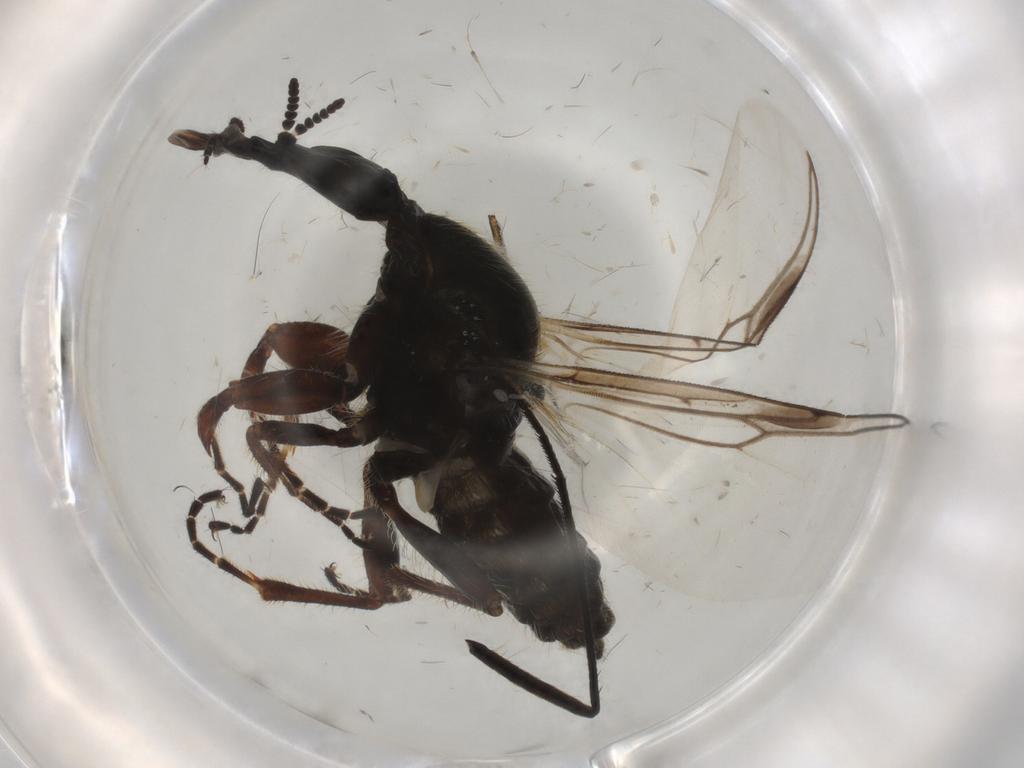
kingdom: Animalia
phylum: Arthropoda
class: Insecta
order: Diptera
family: Bibionidae
